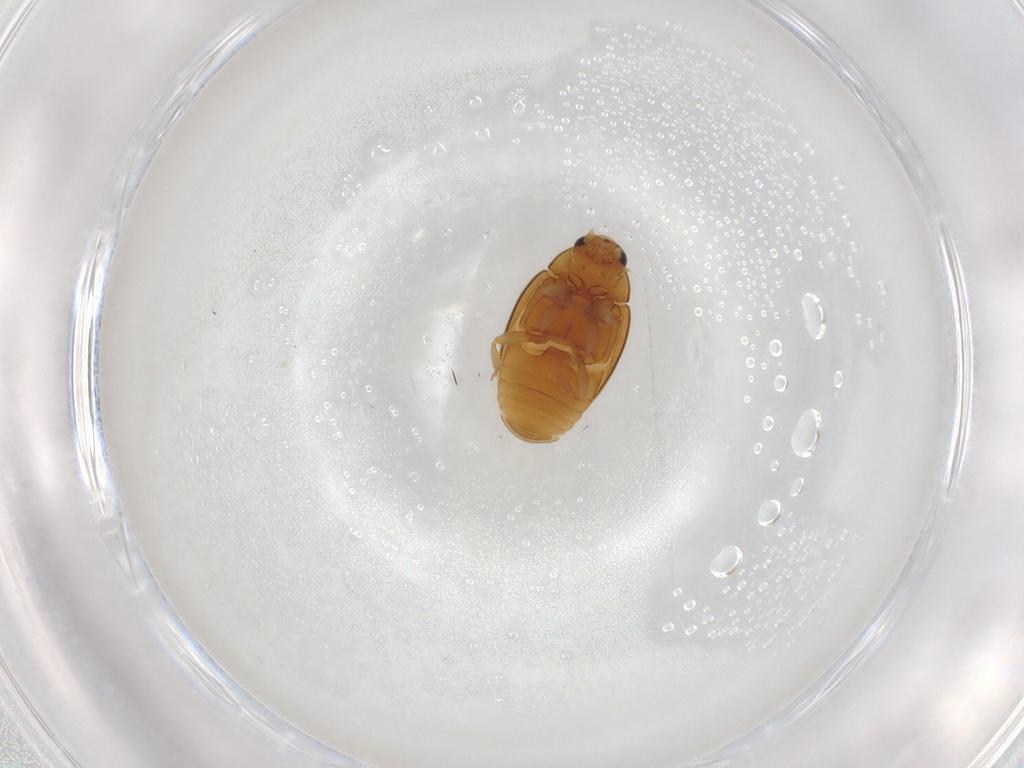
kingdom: Animalia
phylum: Arthropoda
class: Insecta
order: Coleoptera
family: Coccinellidae
